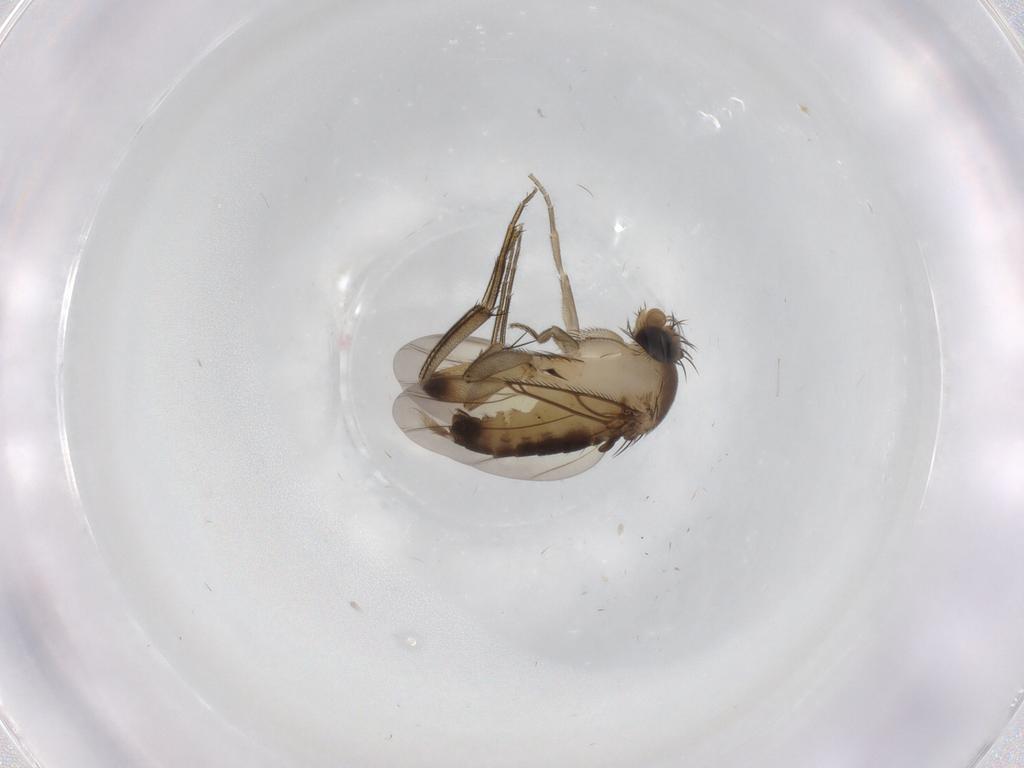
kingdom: Animalia
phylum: Arthropoda
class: Insecta
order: Diptera
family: Phoridae
